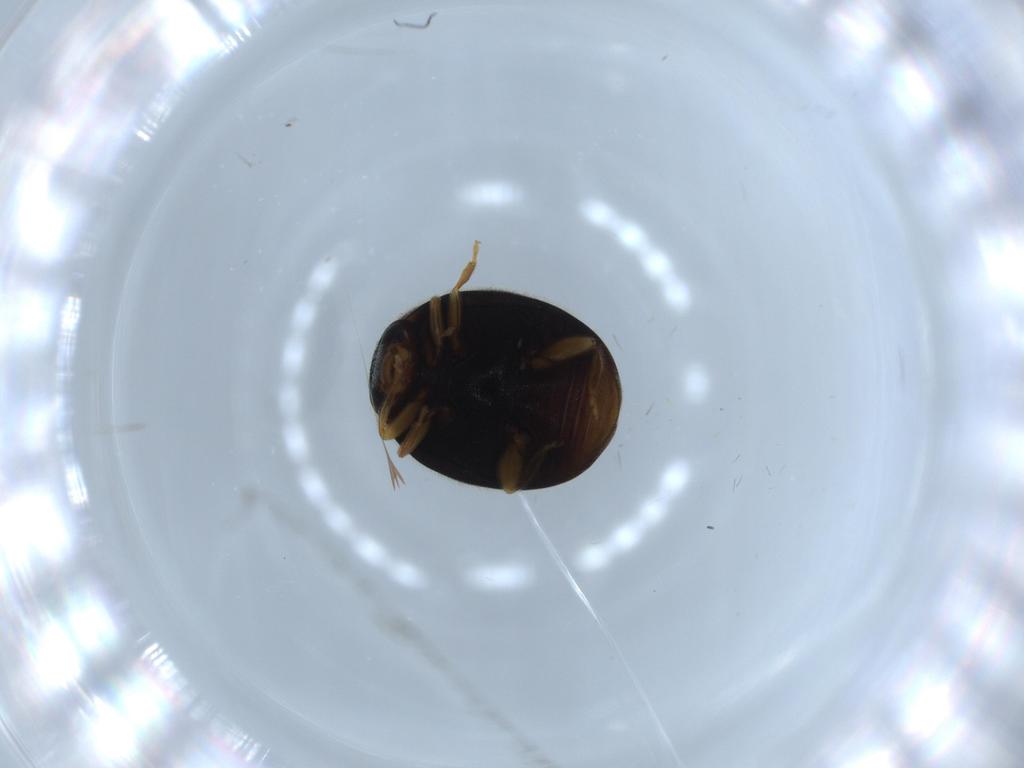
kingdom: Animalia
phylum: Arthropoda
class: Insecta
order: Coleoptera
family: Coccinellidae
